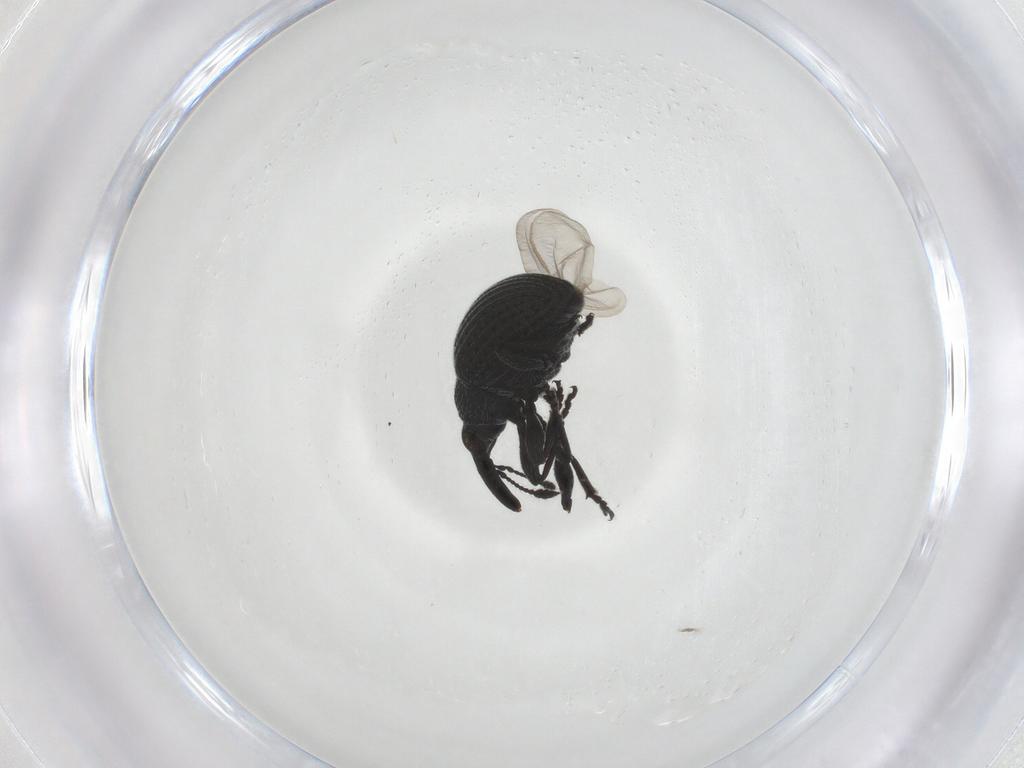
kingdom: Animalia
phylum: Arthropoda
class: Insecta
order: Coleoptera
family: Brentidae
